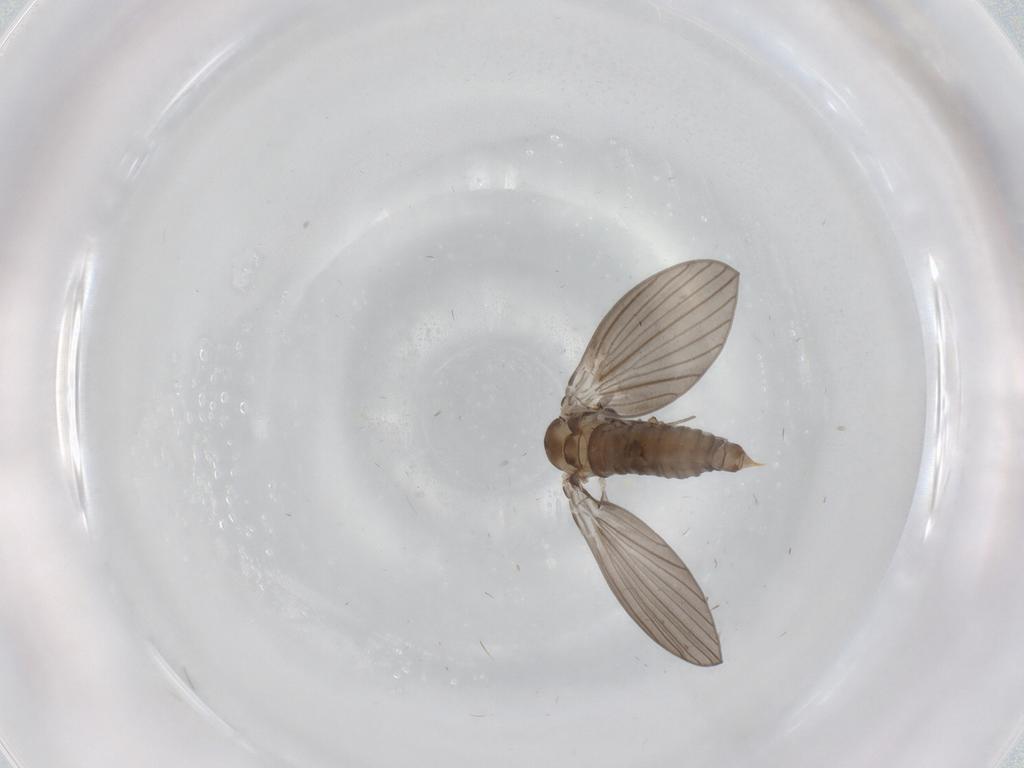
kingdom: Animalia
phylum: Arthropoda
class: Insecta
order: Diptera
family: Psychodidae
